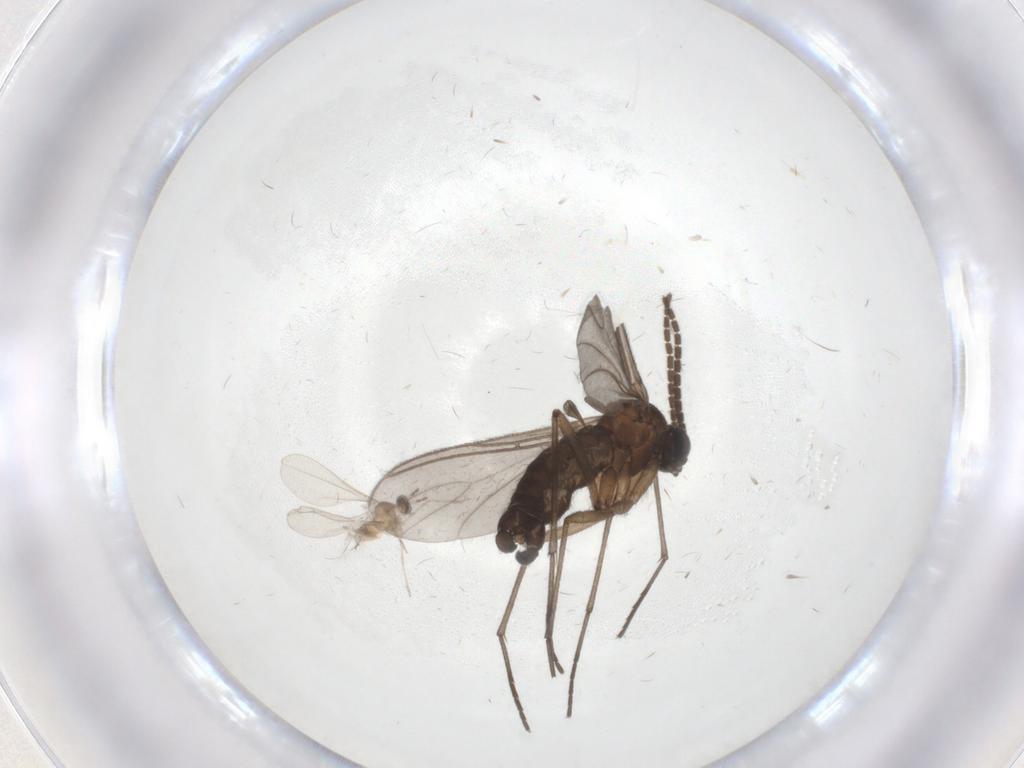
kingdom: Animalia
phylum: Arthropoda
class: Insecta
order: Diptera
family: Sciaridae
